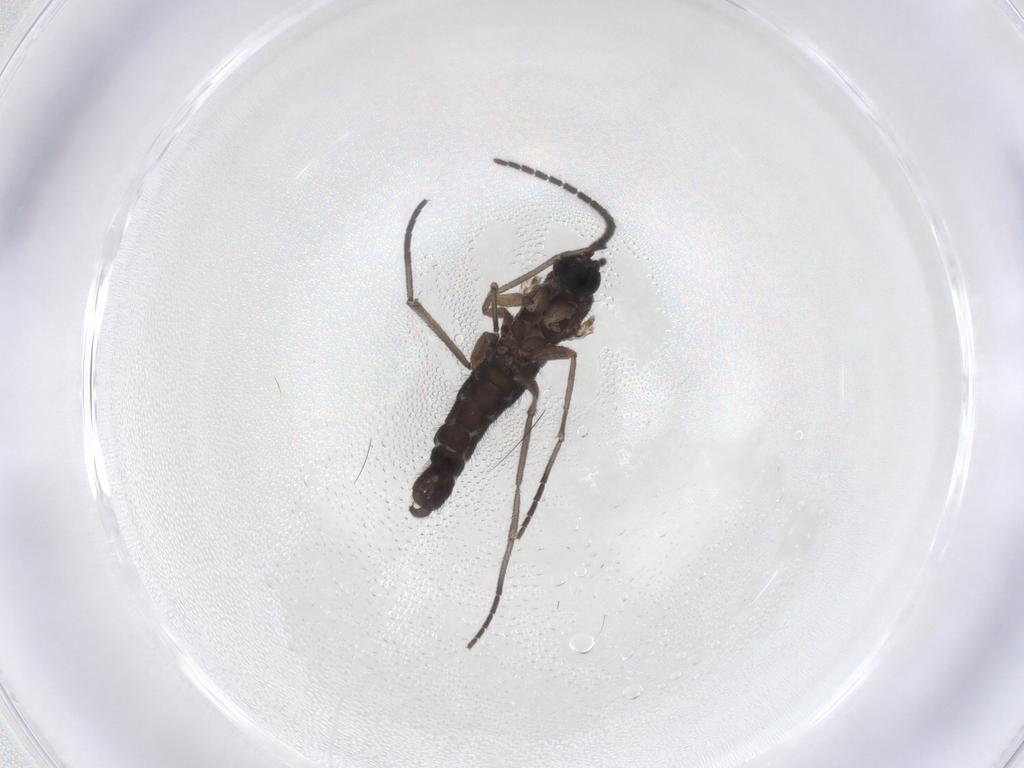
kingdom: Animalia
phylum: Arthropoda
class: Insecta
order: Diptera
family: Sciaridae
